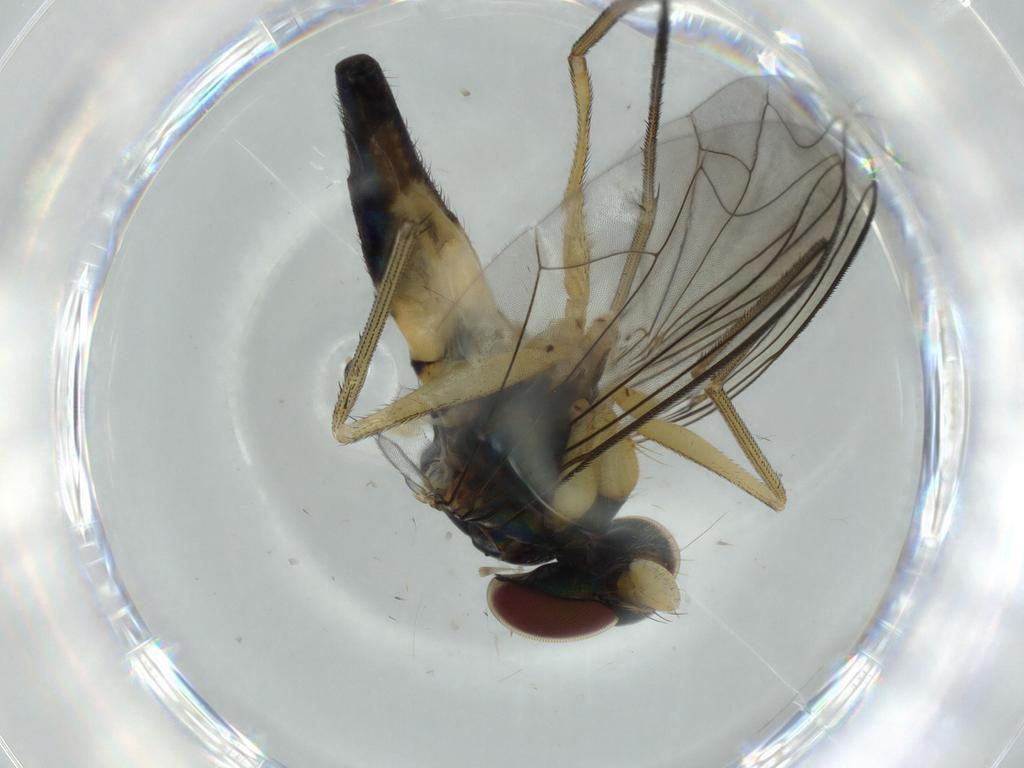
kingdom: Animalia
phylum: Arthropoda
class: Insecta
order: Diptera
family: Dolichopodidae
